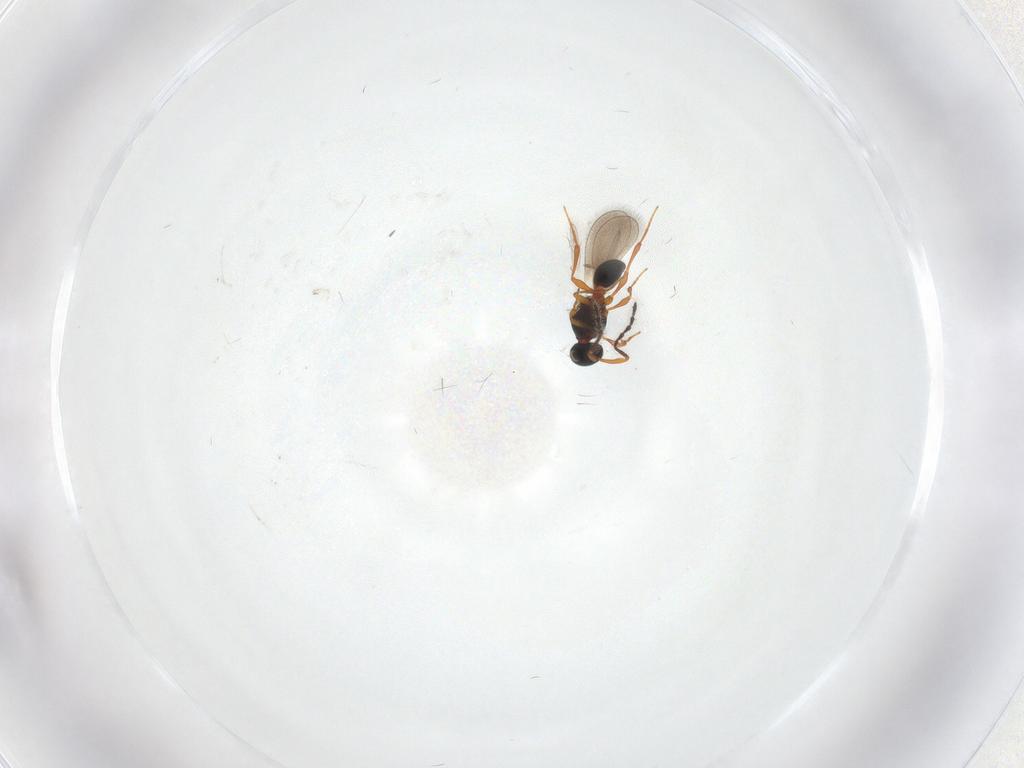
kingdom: Animalia
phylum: Arthropoda
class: Insecta
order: Hymenoptera
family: Platygastridae
